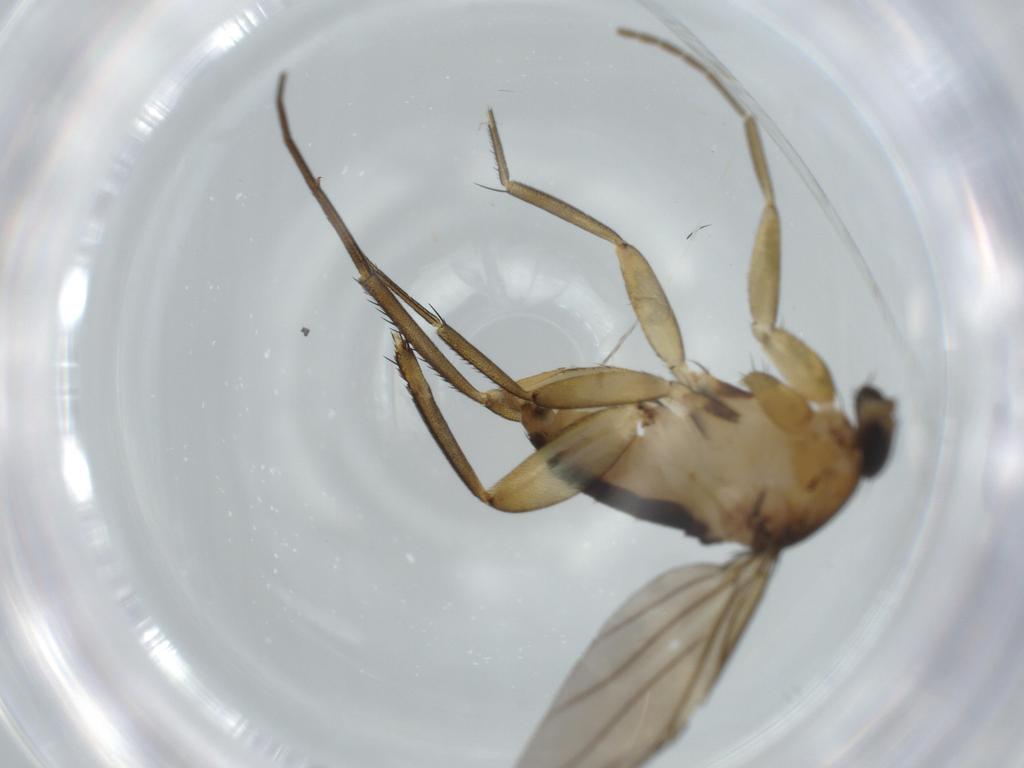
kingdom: Animalia
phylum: Arthropoda
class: Insecta
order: Diptera
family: Phoridae
